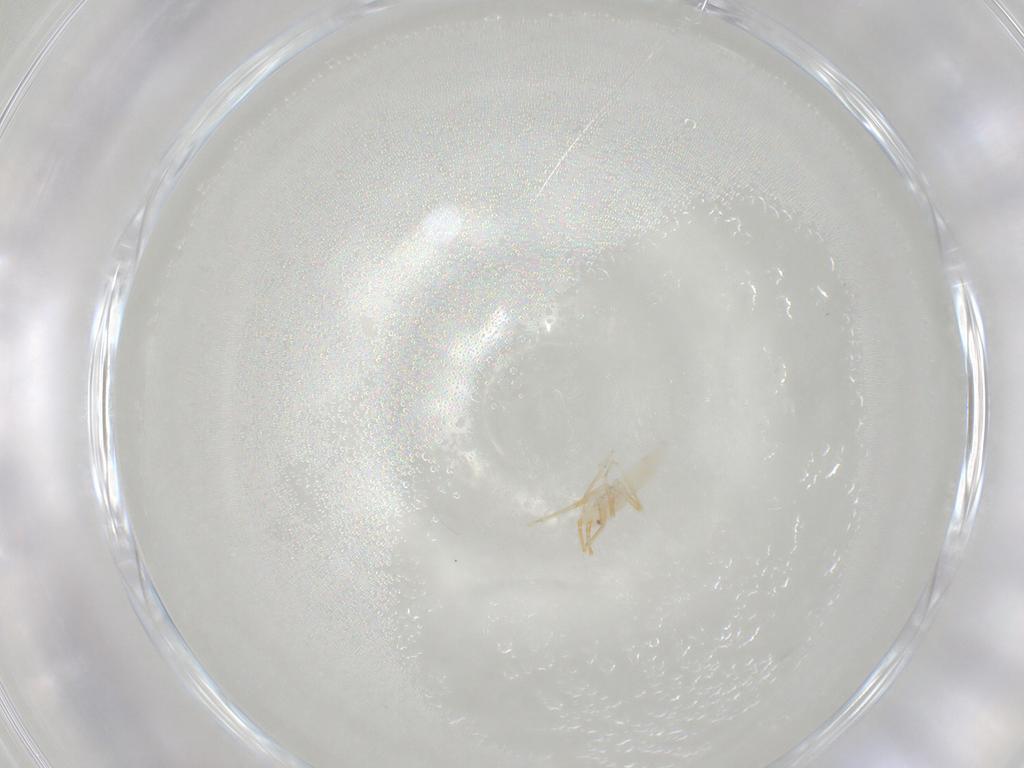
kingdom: Animalia
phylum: Arthropoda
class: Insecta
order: Hemiptera
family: Miridae
